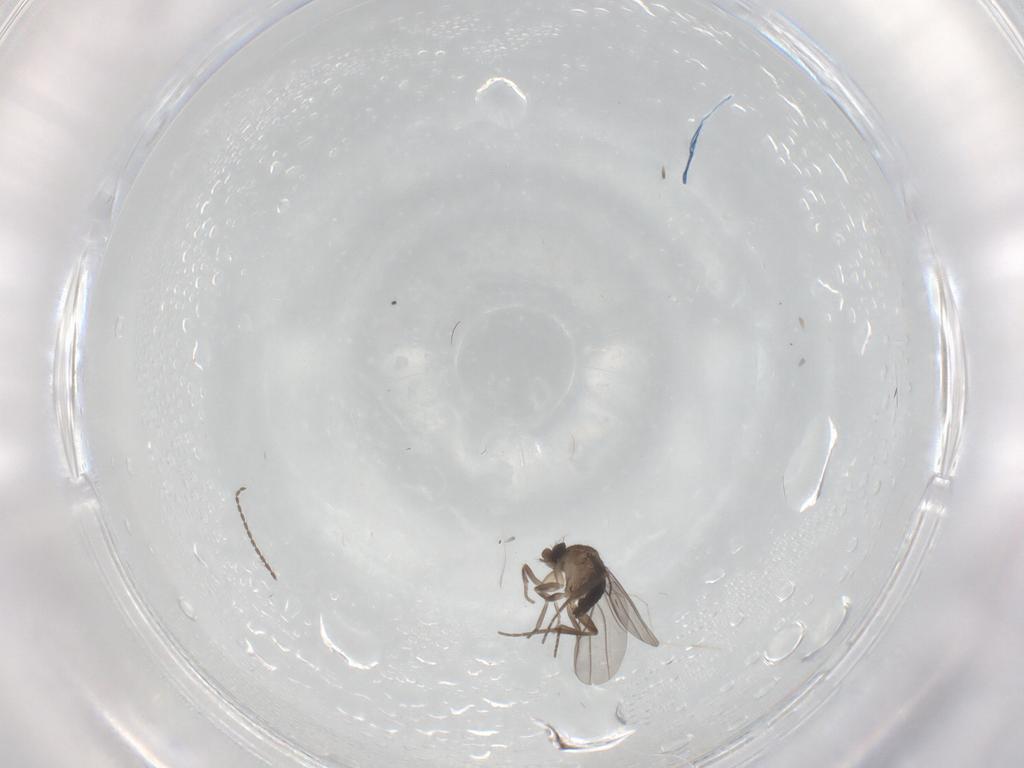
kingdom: Animalia
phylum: Arthropoda
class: Insecta
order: Diptera
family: Cecidomyiidae
